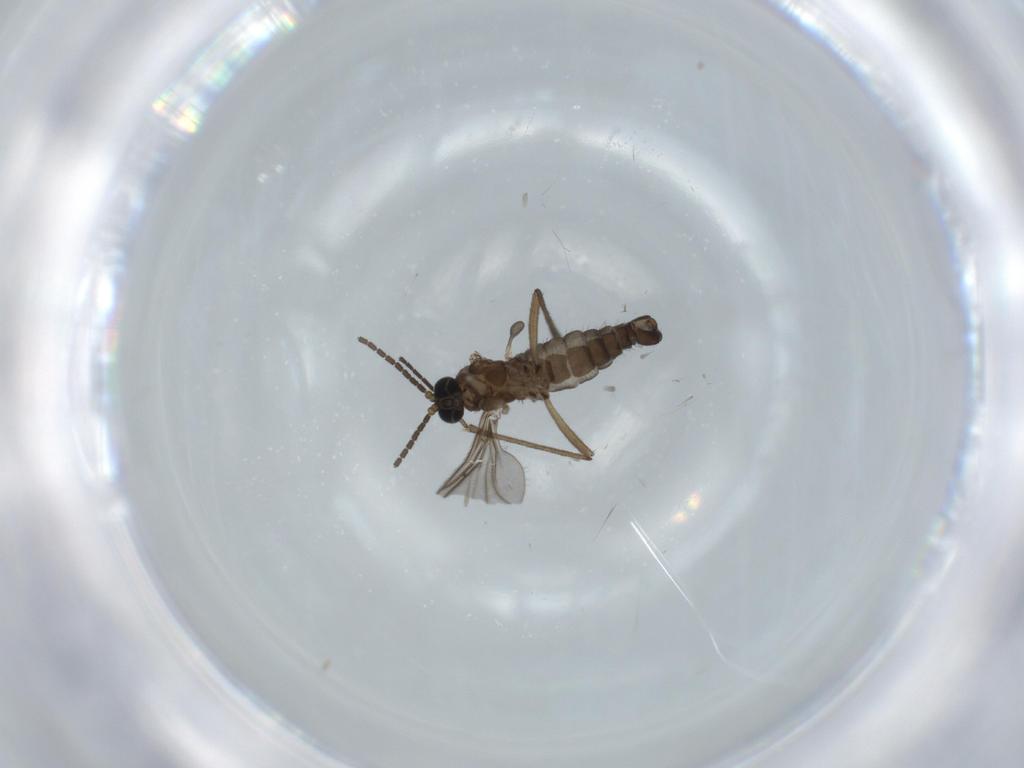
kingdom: Animalia
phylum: Arthropoda
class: Insecta
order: Diptera
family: Sciaridae
